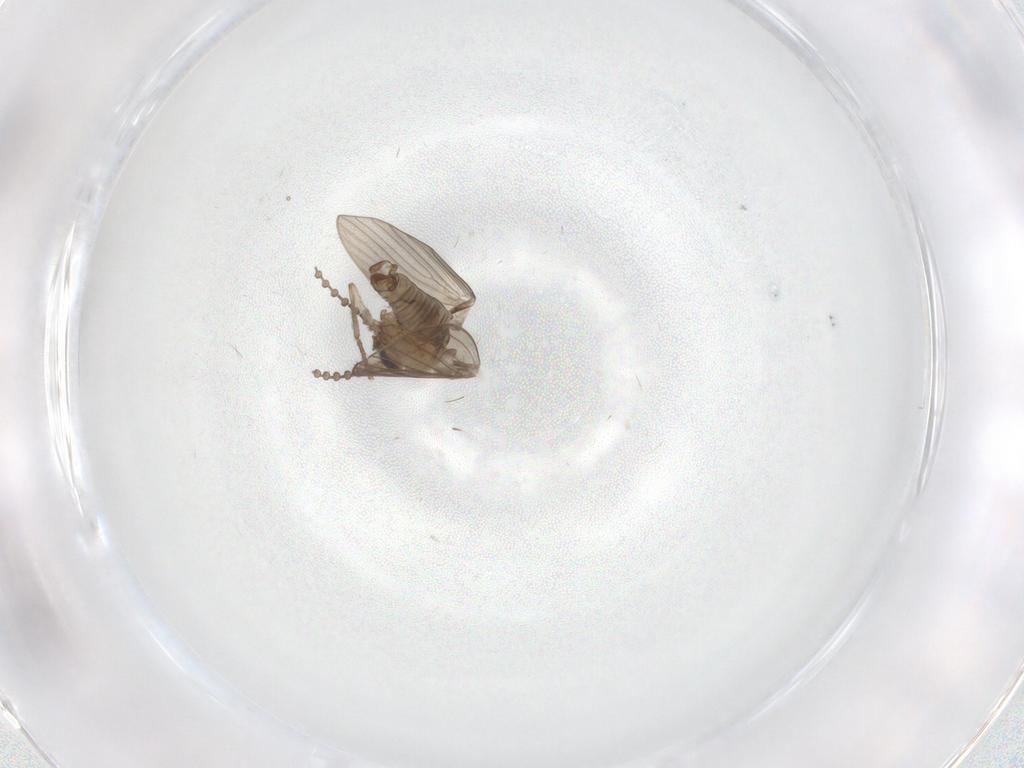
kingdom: Animalia
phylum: Arthropoda
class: Insecta
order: Diptera
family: Psychodidae
